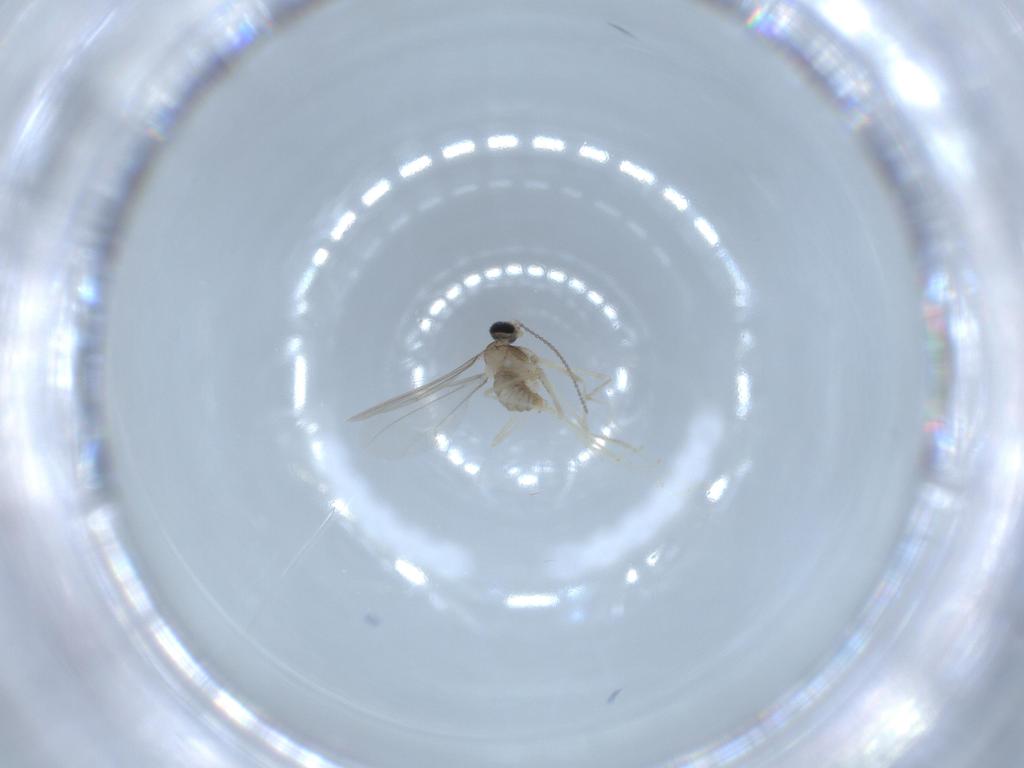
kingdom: Animalia
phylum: Arthropoda
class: Insecta
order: Diptera
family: Cecidomyiidae
